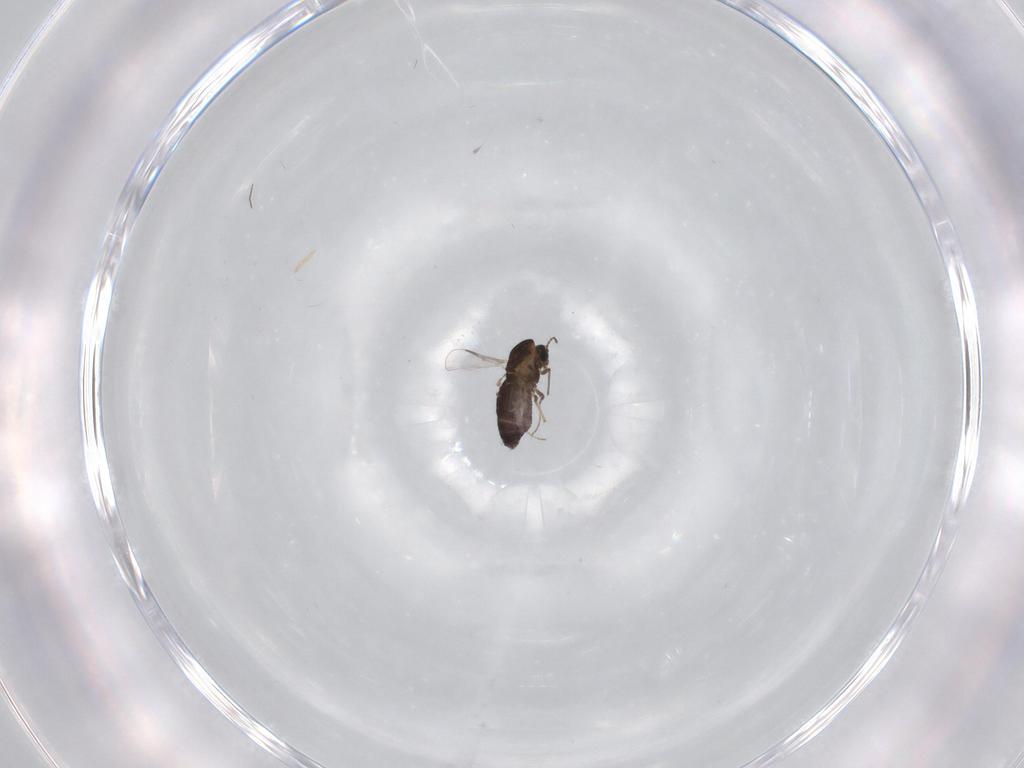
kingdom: Animalia
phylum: Arthropoda
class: Insecta
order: Diptera
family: Chironomidae
